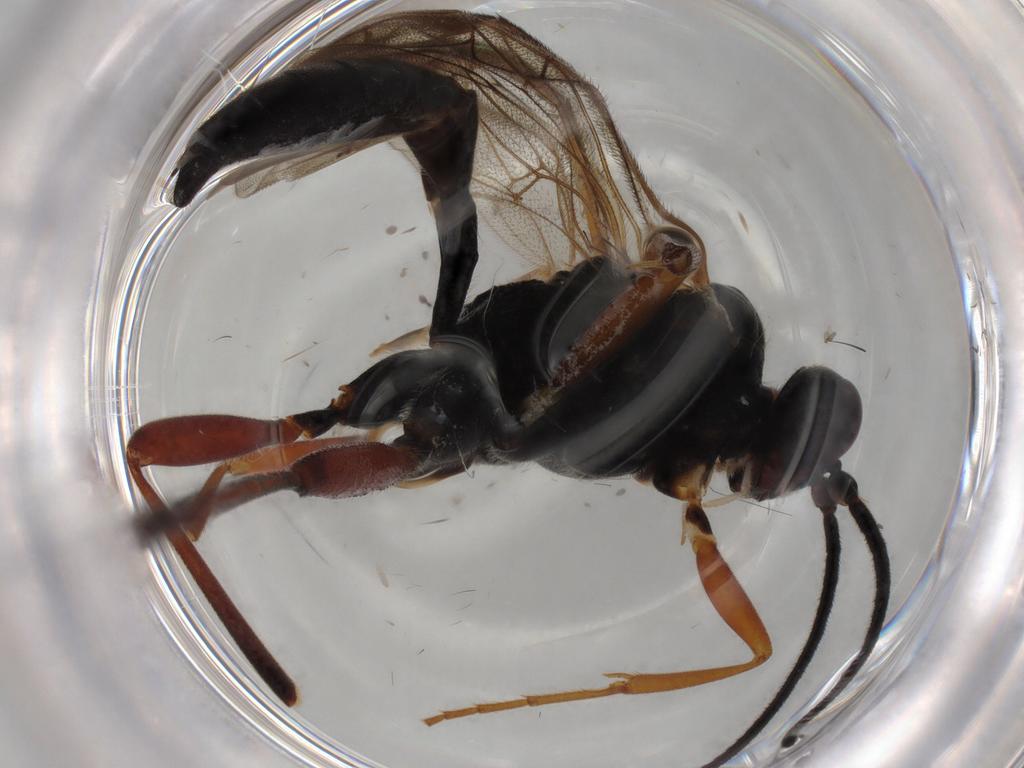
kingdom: Animalia
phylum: Arthropoda
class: Insecta
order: Hymenoptera
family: Ichneumonidae
